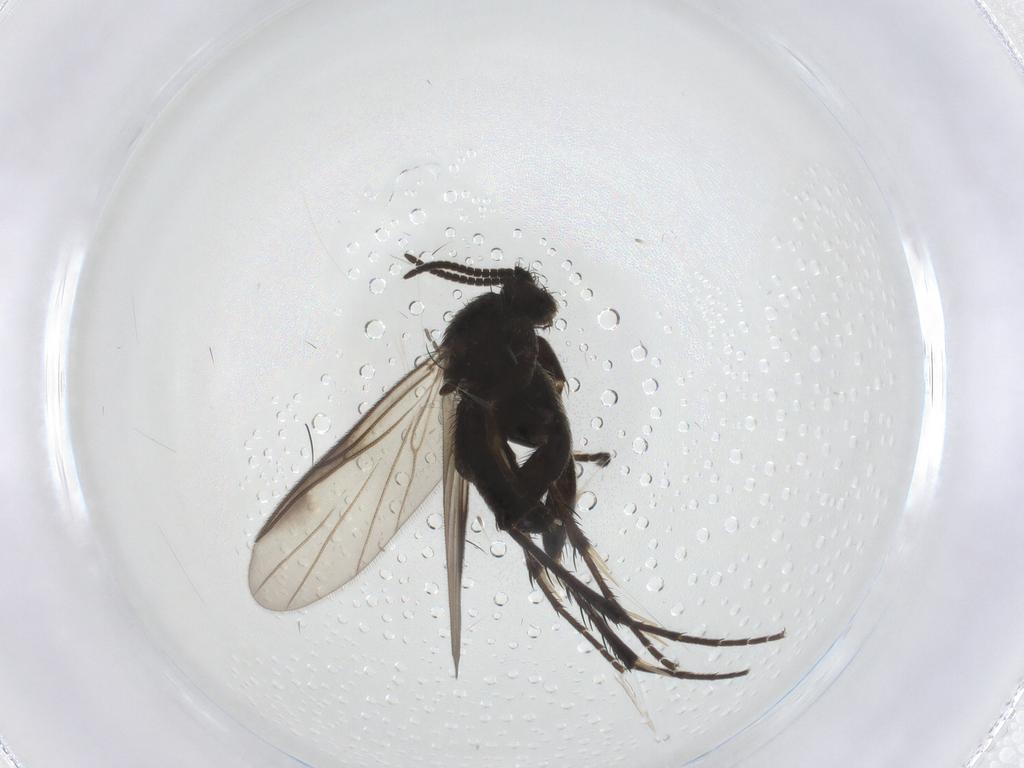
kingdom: Animalia
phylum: Arthropoda
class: Insecta
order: Diptera
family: Mycetophilidae
